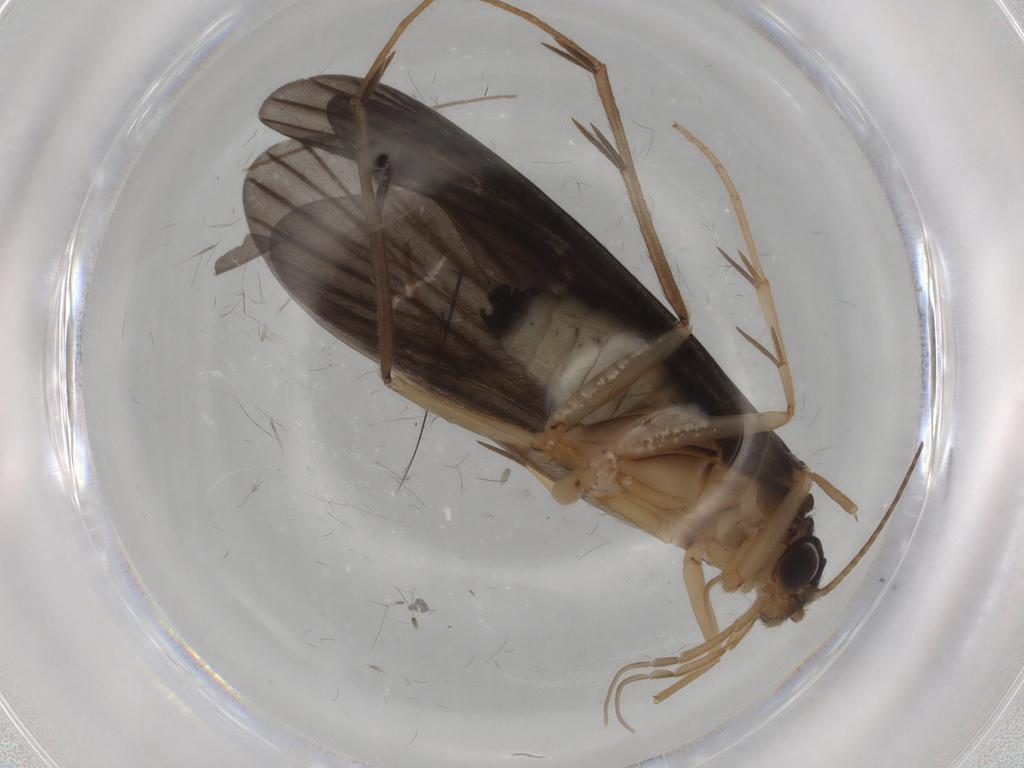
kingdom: Animalia
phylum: Arthropoda
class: Insecta
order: Trichoptera
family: Philopotamidae
